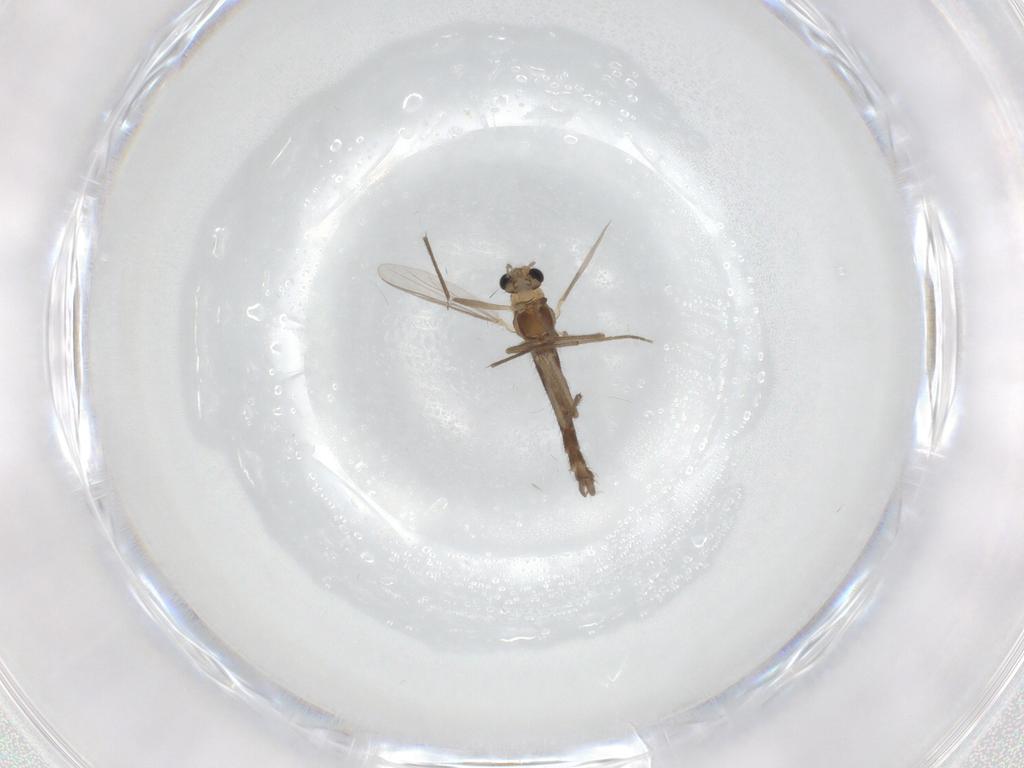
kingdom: Animalia
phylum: Arthropoda
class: Insecta
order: Diptera
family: Chironomidae
